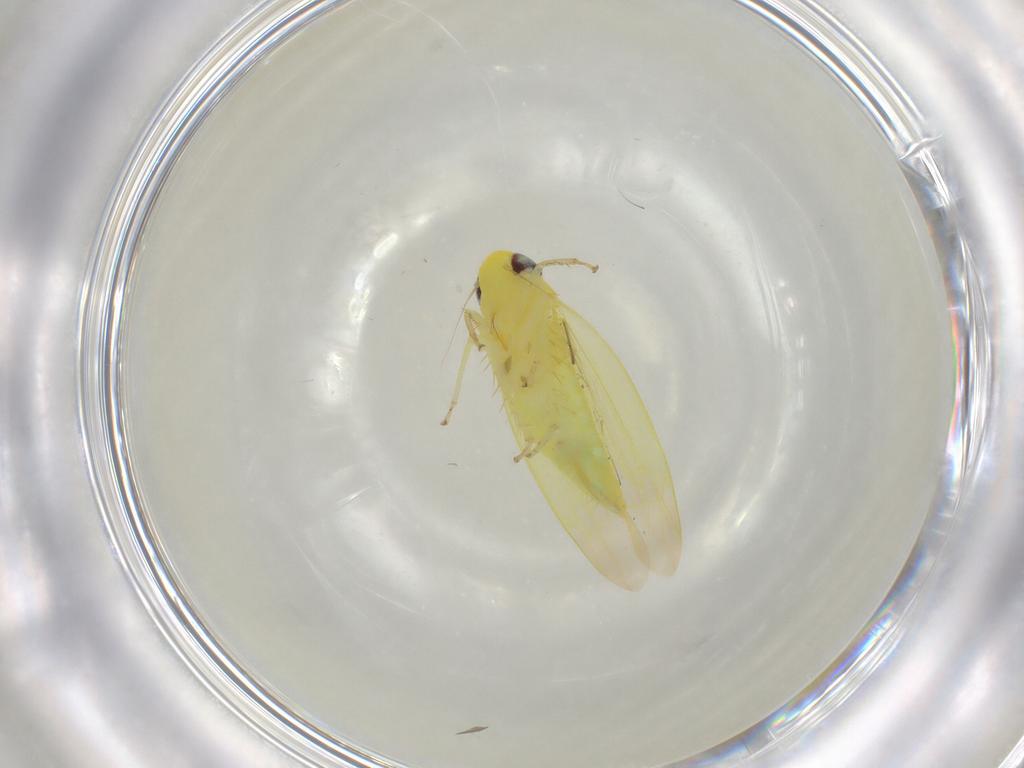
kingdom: Animalia
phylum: Arthropoda
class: Insecta
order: Hemiptera
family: Cicadellidae
